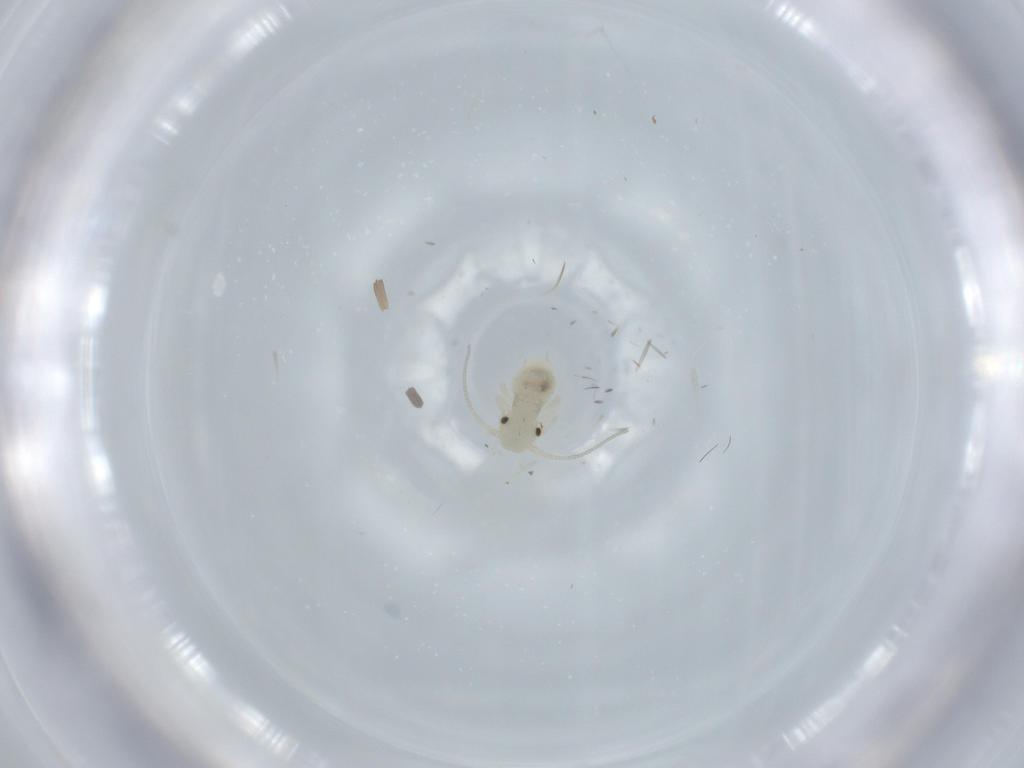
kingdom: Animalia
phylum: Arthropoda
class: Insecta
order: Psocodea
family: Caeciliusidae
